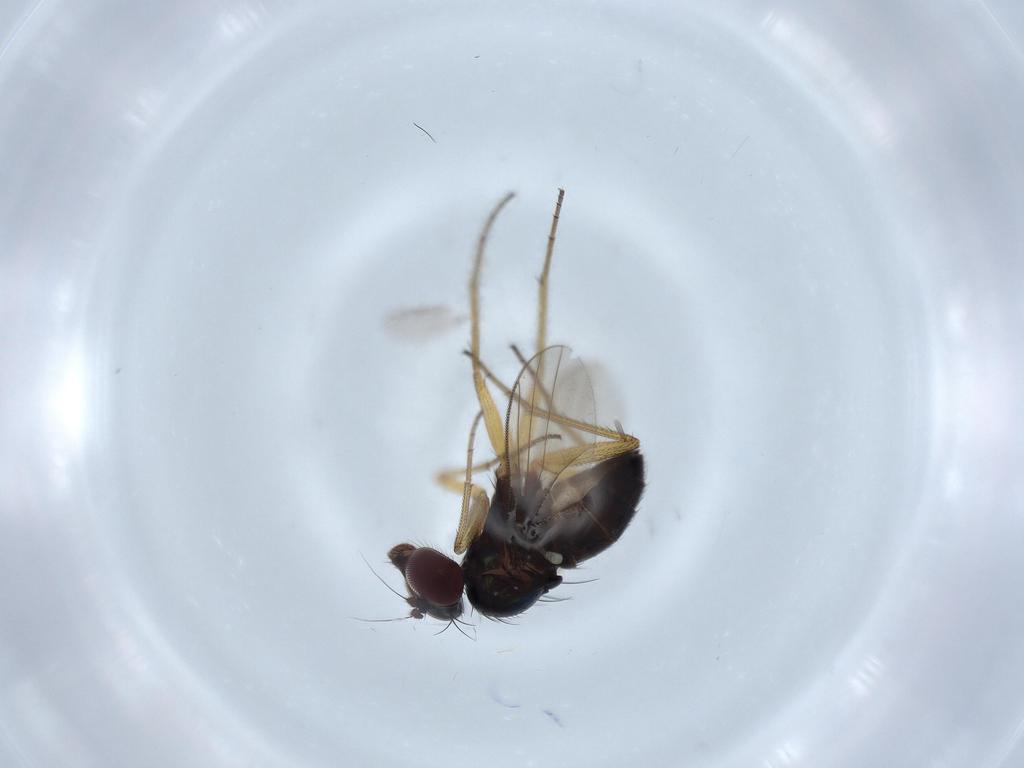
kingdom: Animalia
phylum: Arthropoda
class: Insecta
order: Diptera
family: Dolichopodidae
